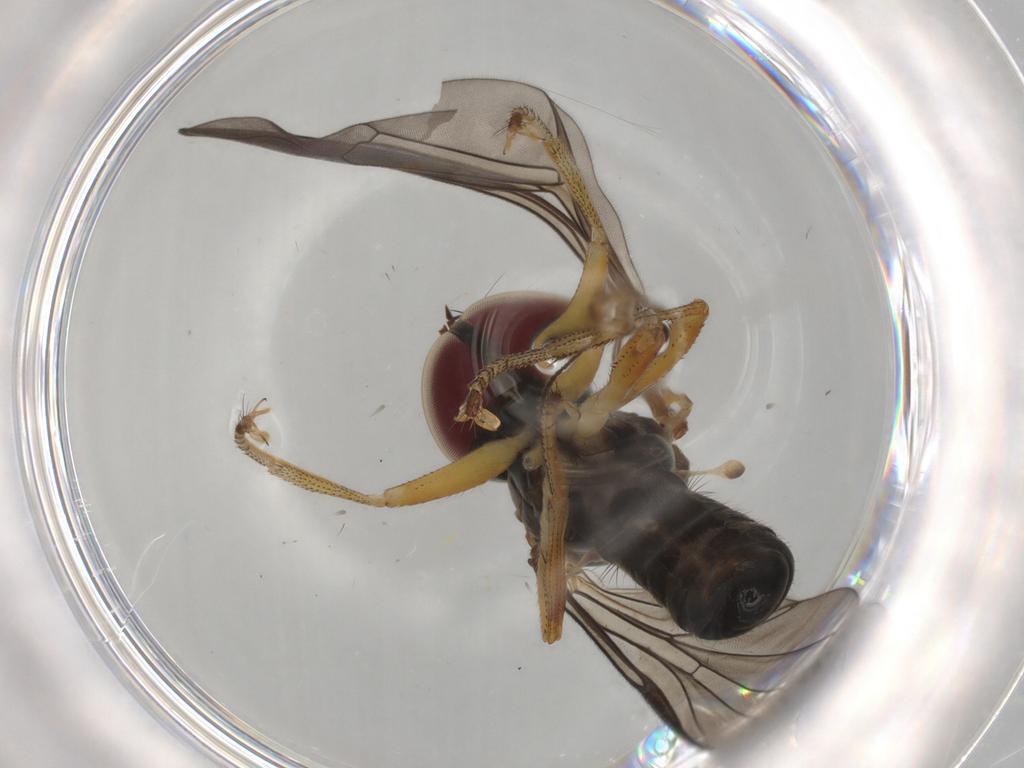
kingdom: Animalia
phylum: Arthropoda
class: Insecta
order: Diptera
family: Pipunculidae
